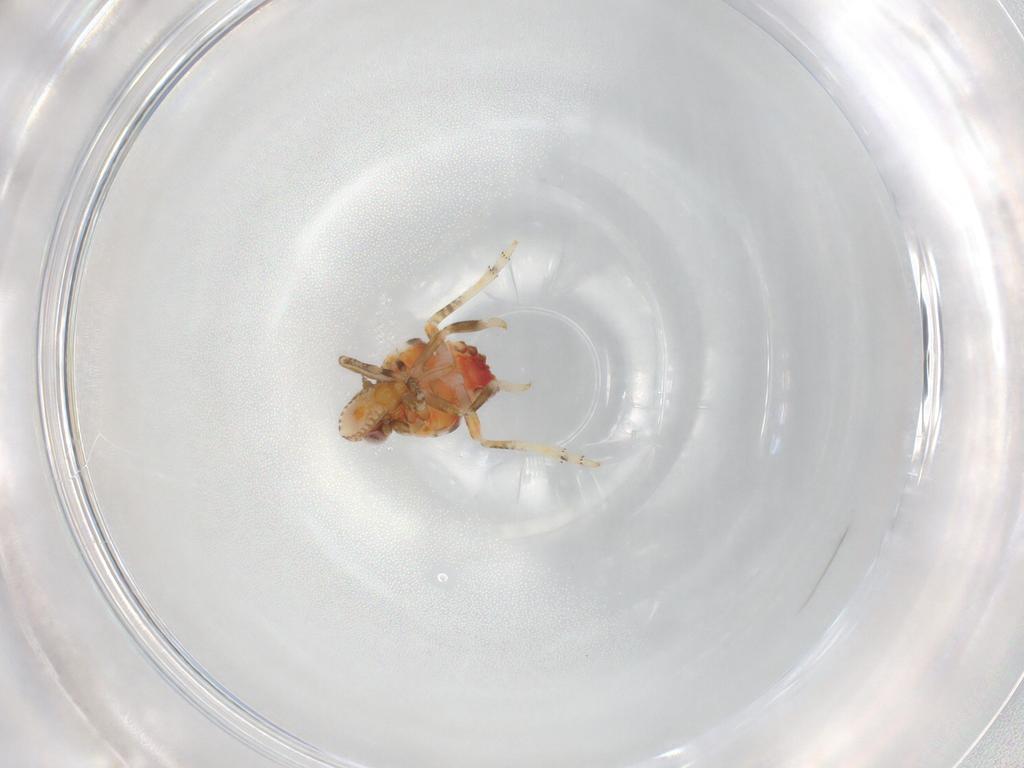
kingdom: Animalia
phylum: Arthropoda
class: Insecta
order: Hemiptera
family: Tropiduchidae
